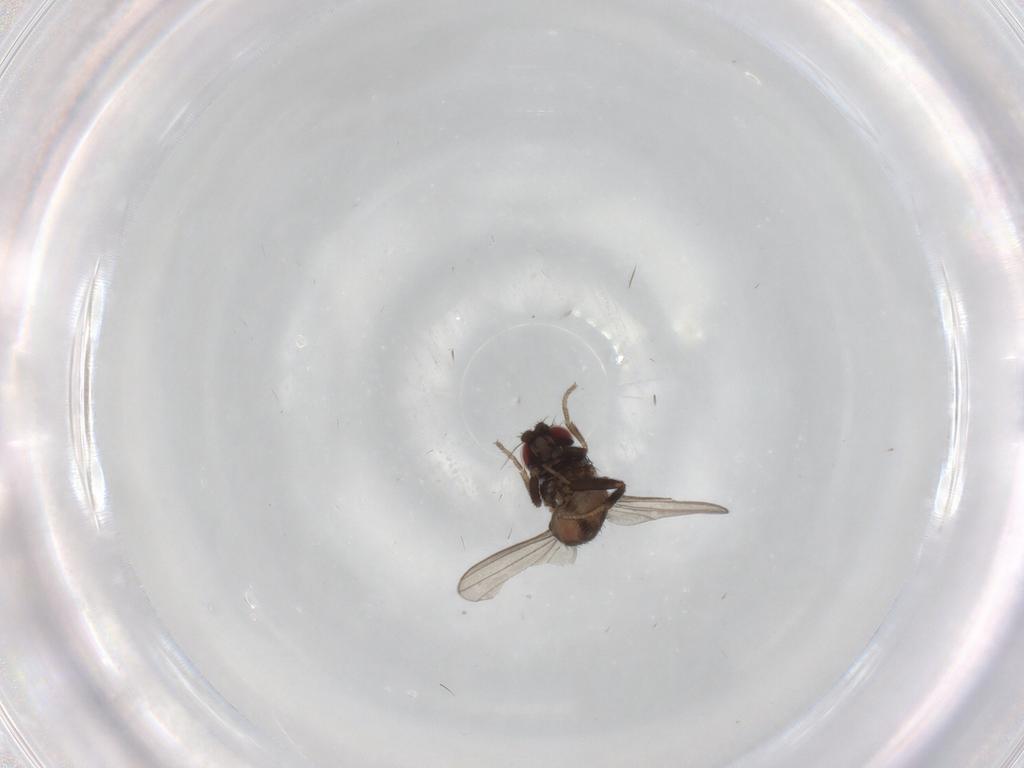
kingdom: Animalia
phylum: Arthropoda
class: Insecta
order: Diptera
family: Milichiidae
